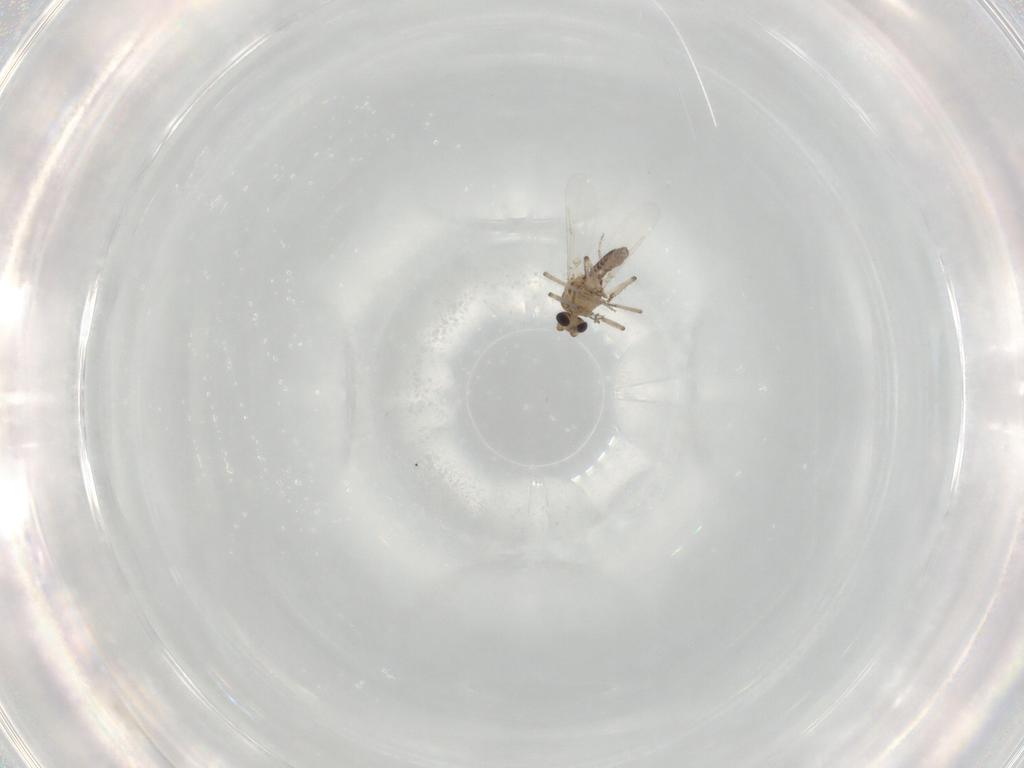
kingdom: Animalia
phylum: Arthropoda
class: Insecta
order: Diptera
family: Ceratopogonidae
